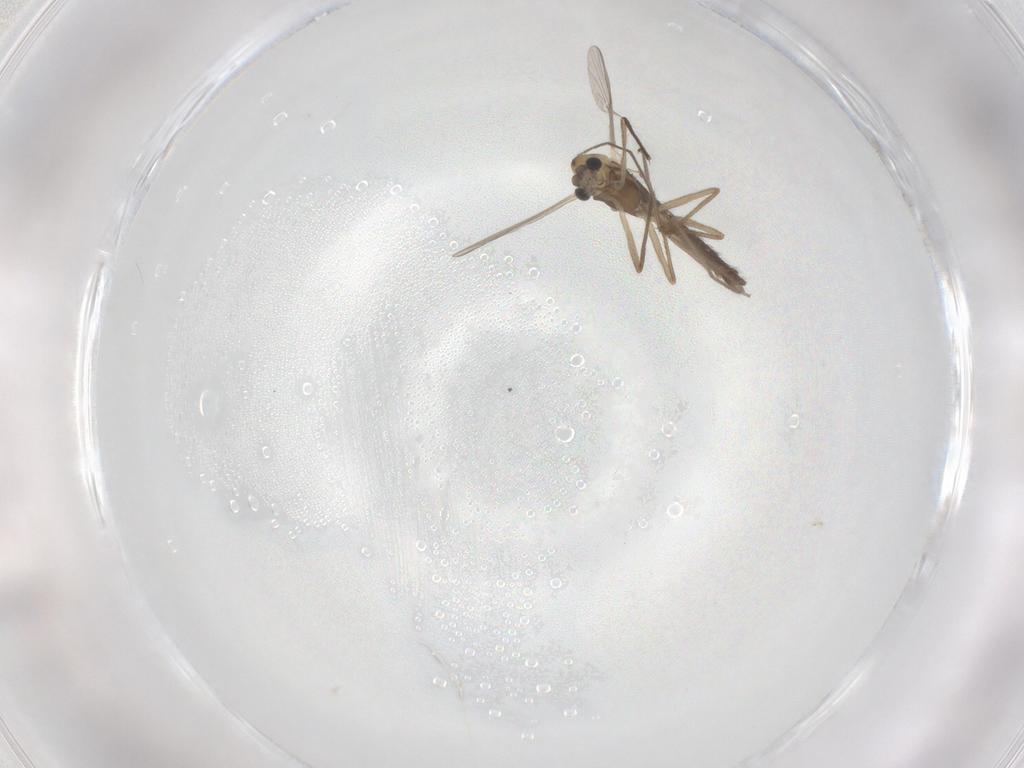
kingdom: Animalia
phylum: Arthropoda
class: Insecta
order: Diptera
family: Chironomidae
